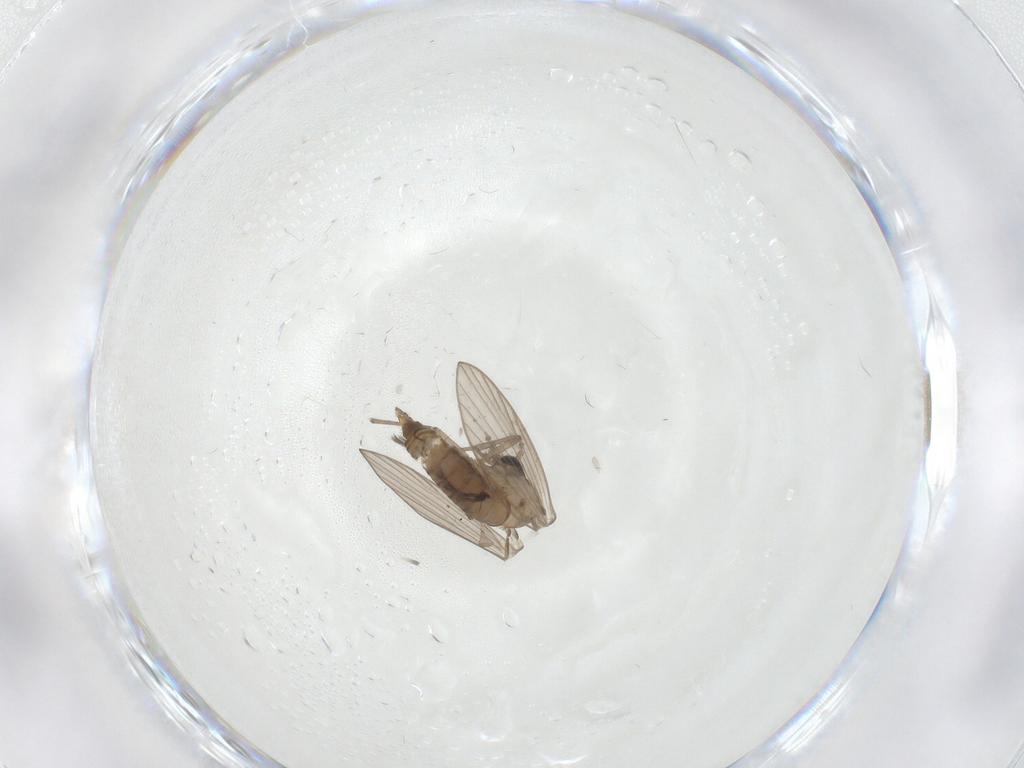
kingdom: Animalia
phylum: Arthropoda
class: Insecta
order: Diptera
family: Psychodidae
